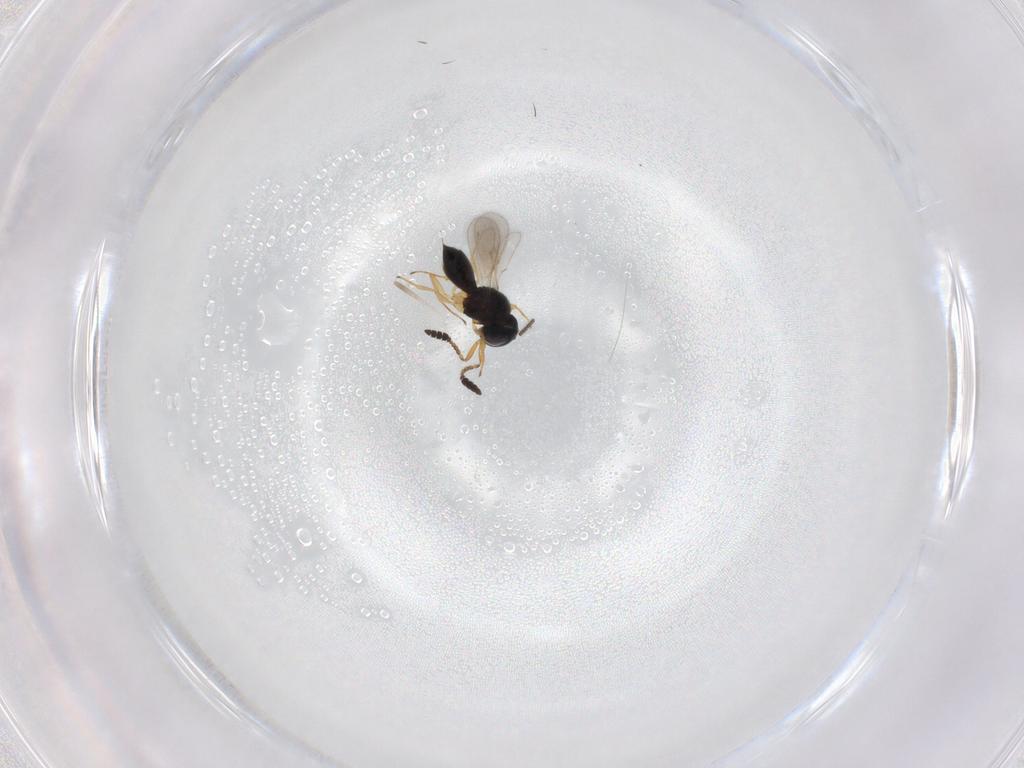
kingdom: Animalia
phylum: Arthropoda
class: Insecta
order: Hymenoptera
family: Scelionidae
